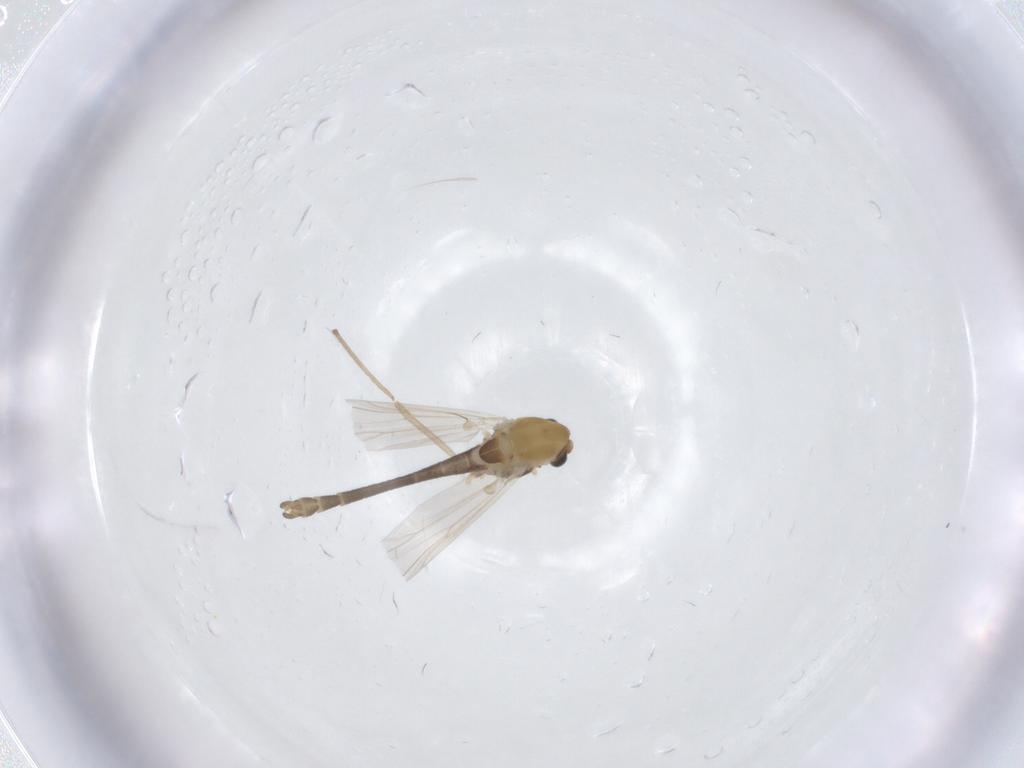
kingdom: Animalia
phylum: Arthropoda
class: Insecta
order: Diptera
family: Chironomidae
